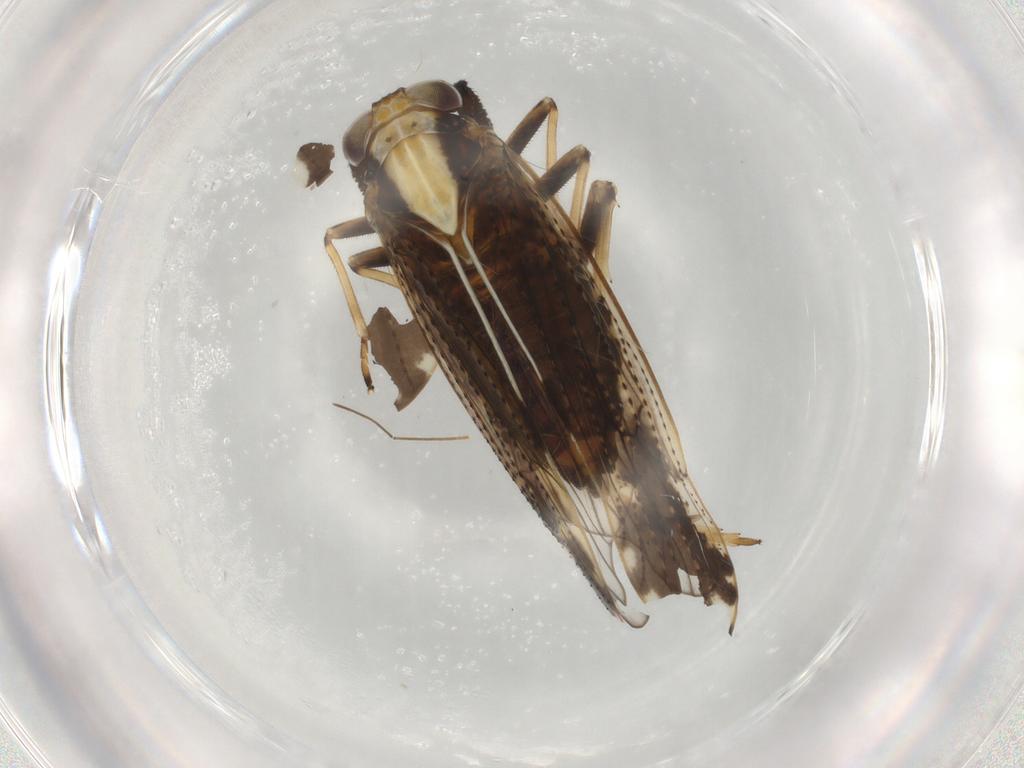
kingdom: Animalia
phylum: Arthropoda
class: Insecta
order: Hemiptera
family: Delphacidae
